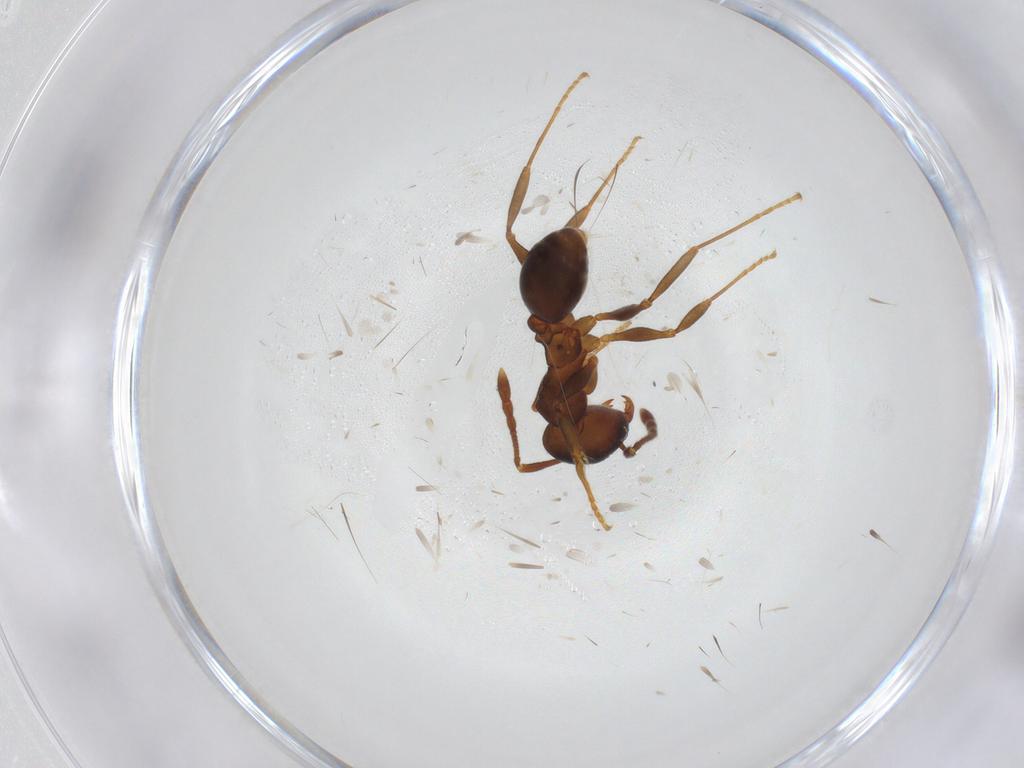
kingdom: Animalia
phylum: Arthropoda
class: Insecta
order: Hymenoptera
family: Formicidae
